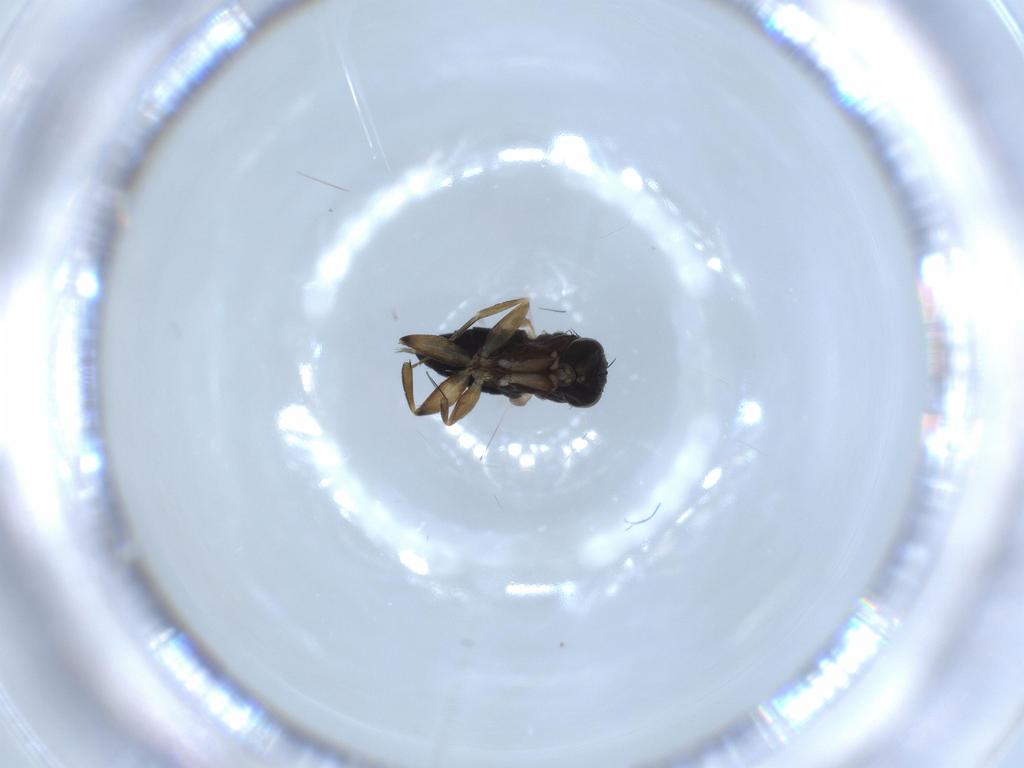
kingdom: Animalia
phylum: Arthropoda
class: Insecta
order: Diptera
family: Phoridae
